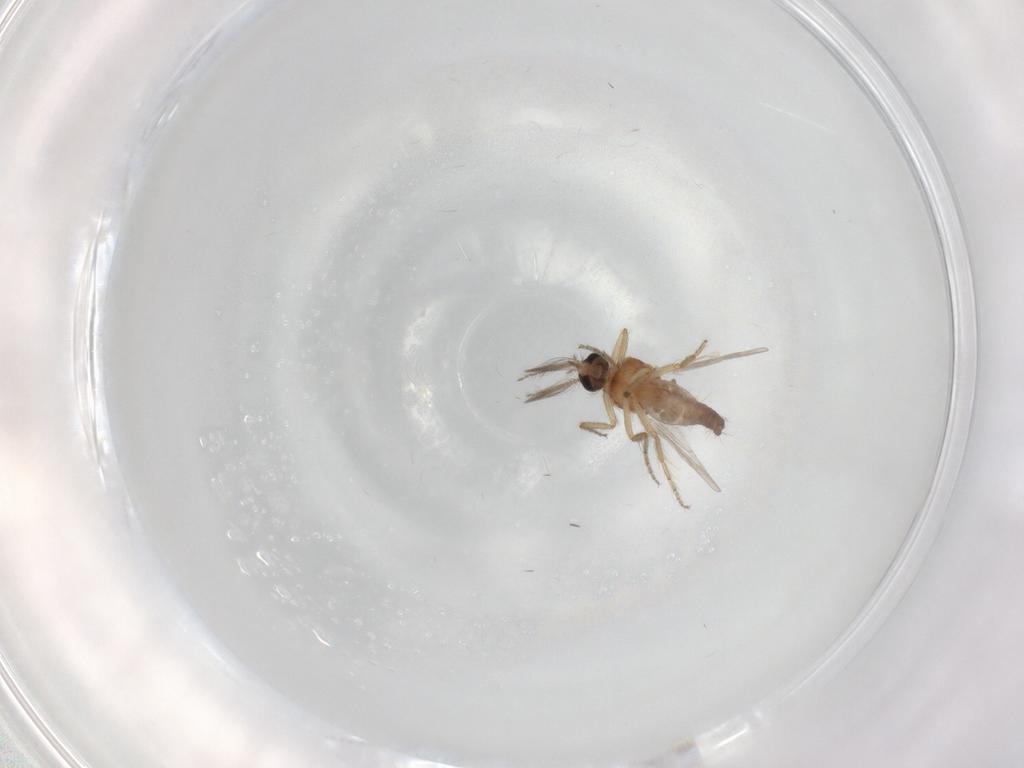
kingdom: Animalia
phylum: Arthropoda
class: Insecta
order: Diptera
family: Ceratopogonidae
